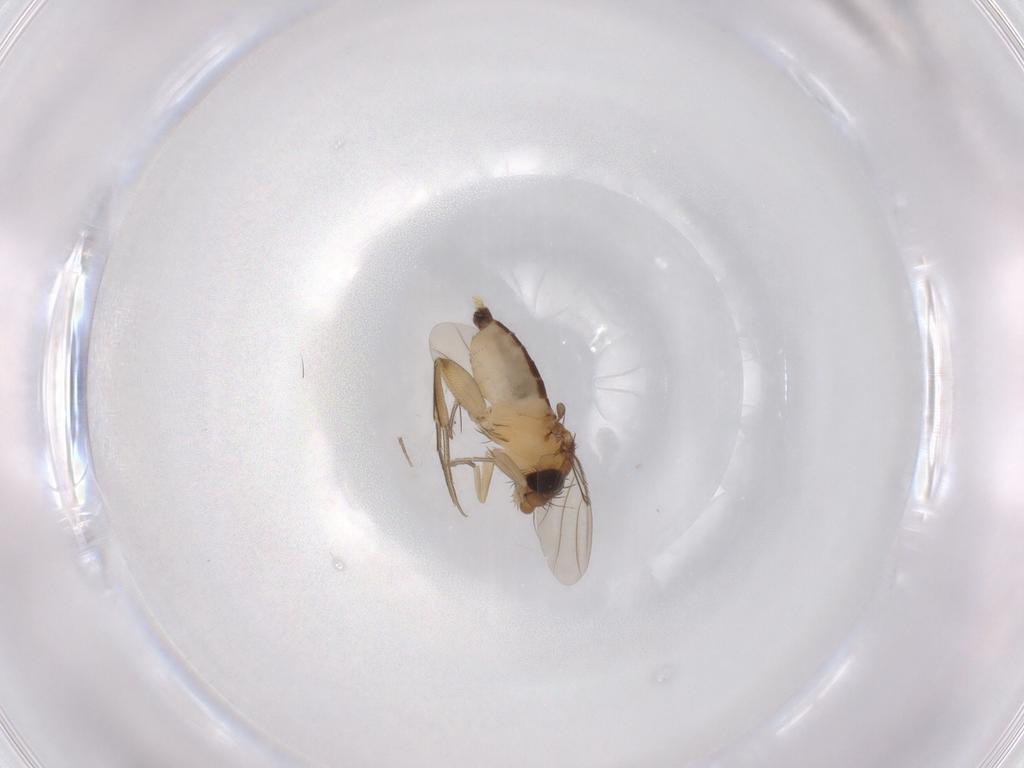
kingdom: Animalia
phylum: Arthropoda
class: Insecta
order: Diptera
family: Phoridae
